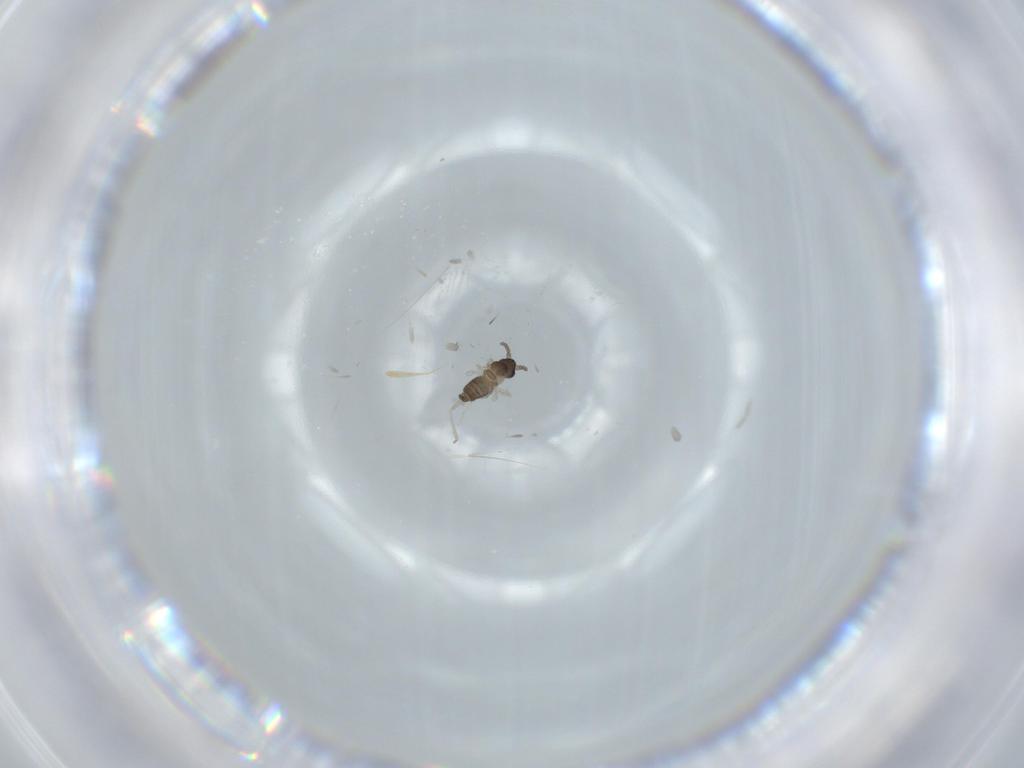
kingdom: Animalia
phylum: Arthropoda
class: Insecta
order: Diptera
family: Cecidomyiidae
